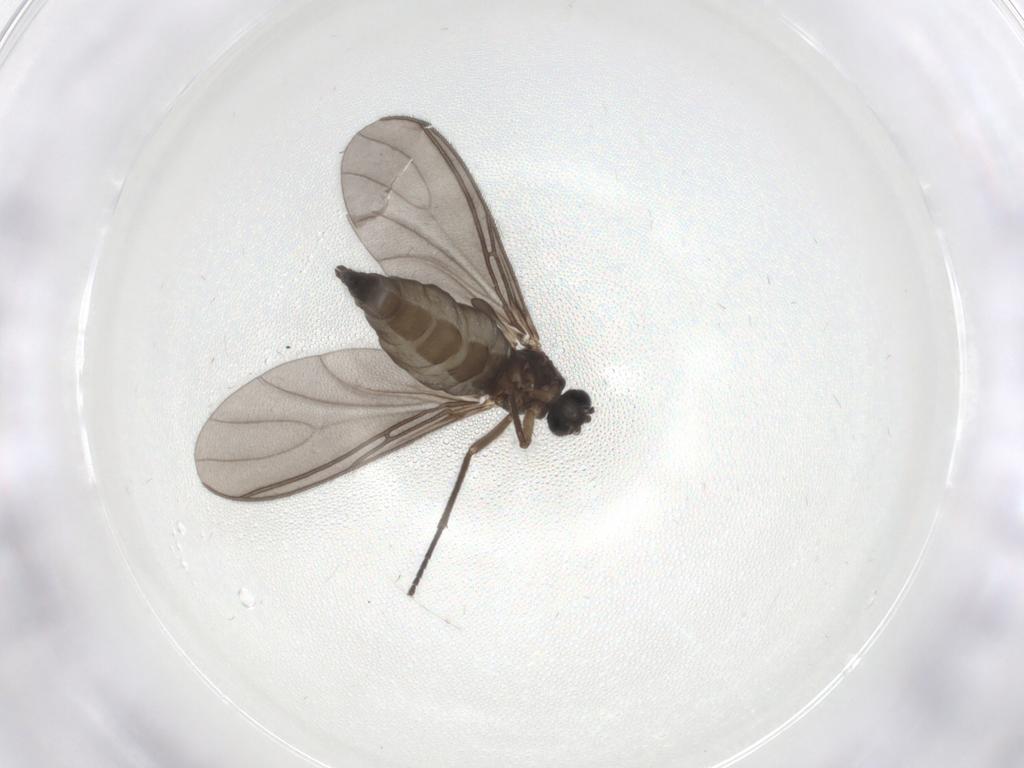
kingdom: Animalia
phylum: Arthropoda
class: Insecta
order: Diptera
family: Sciaridae
